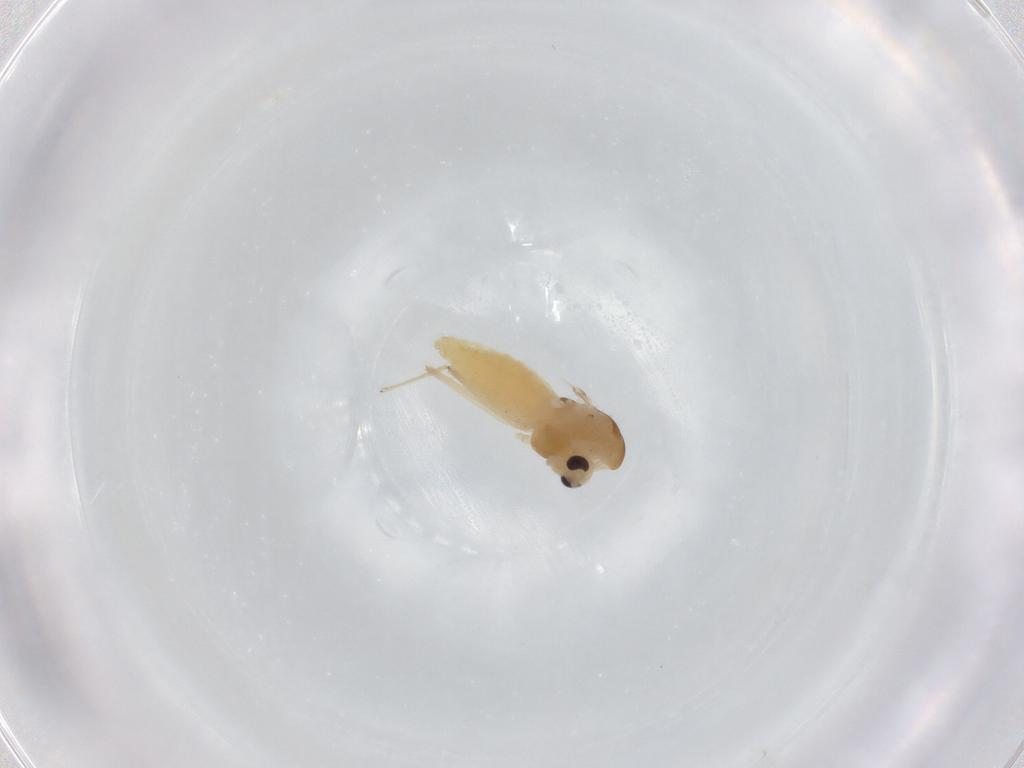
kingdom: Animalia
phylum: Arthropoda
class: Insecta
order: Diptera
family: Chironomidae
